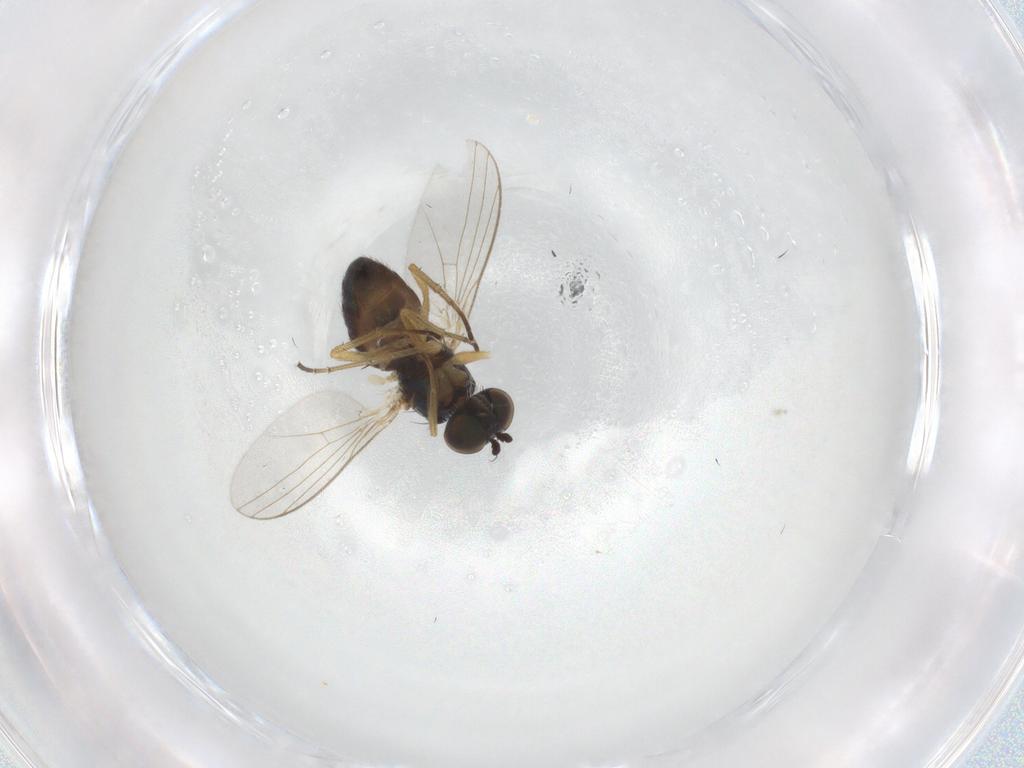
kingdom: Animalia
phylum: Arthropoda
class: Insecta
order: Diptera
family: Dolichopodidae
